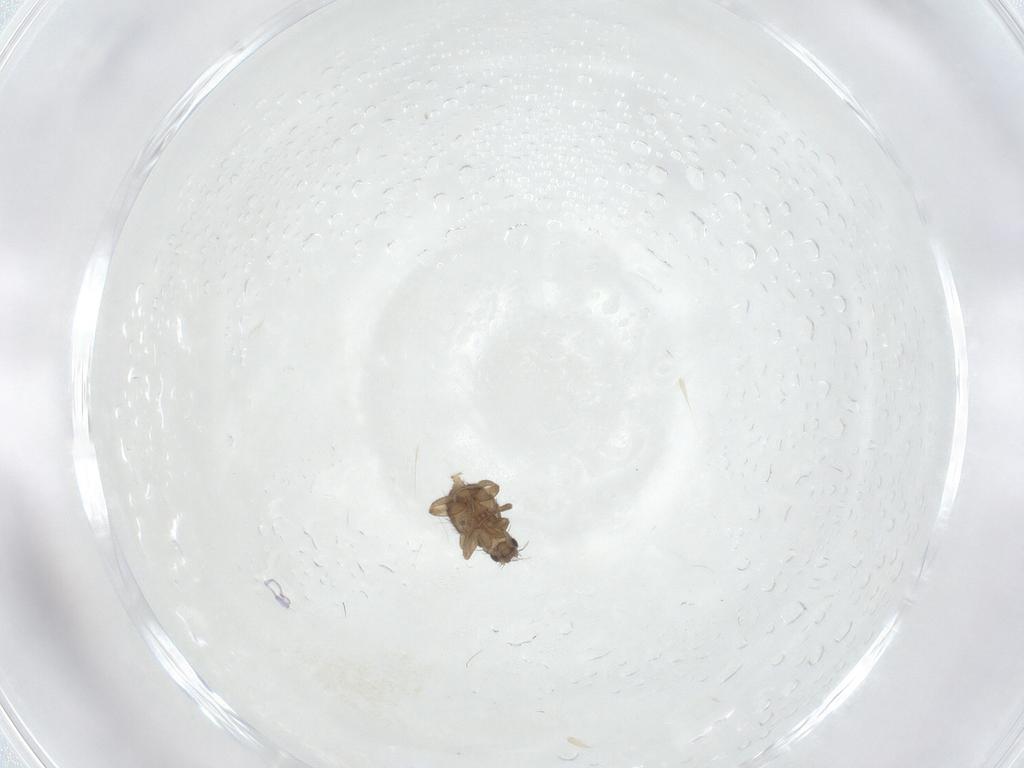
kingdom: Animalia
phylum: Arthropoda
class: Insecta
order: Diptera
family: Phoridae
